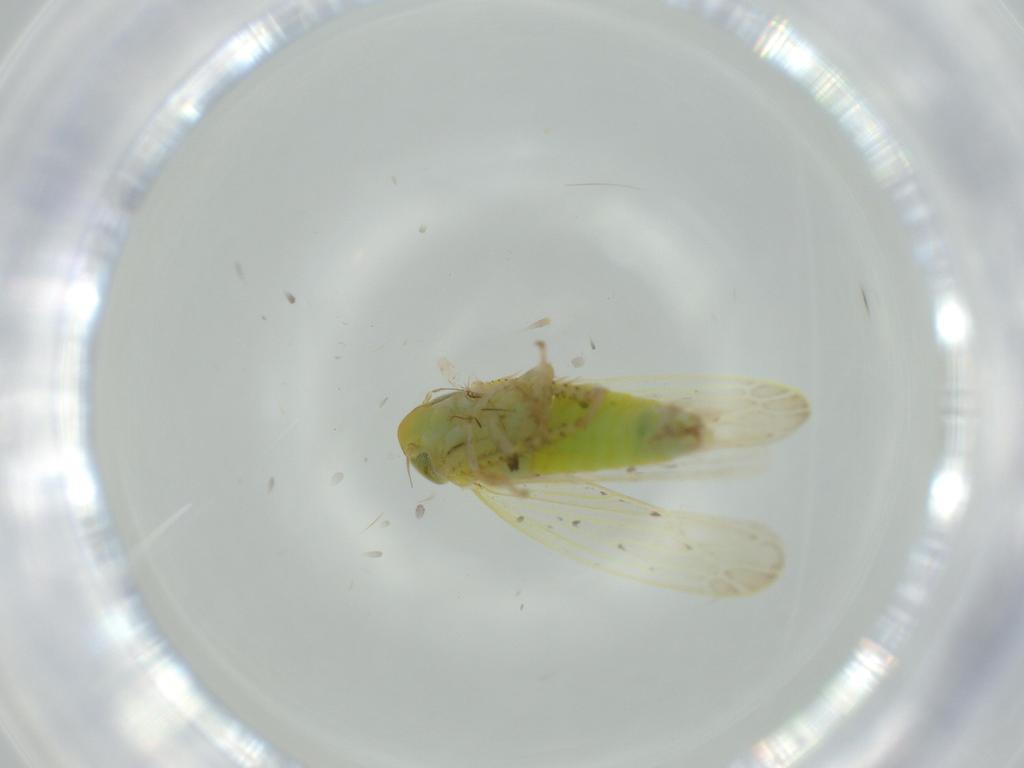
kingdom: Animalia
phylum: Arthropoda
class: Insecta
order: Hemiptera
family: Cicadellidae
